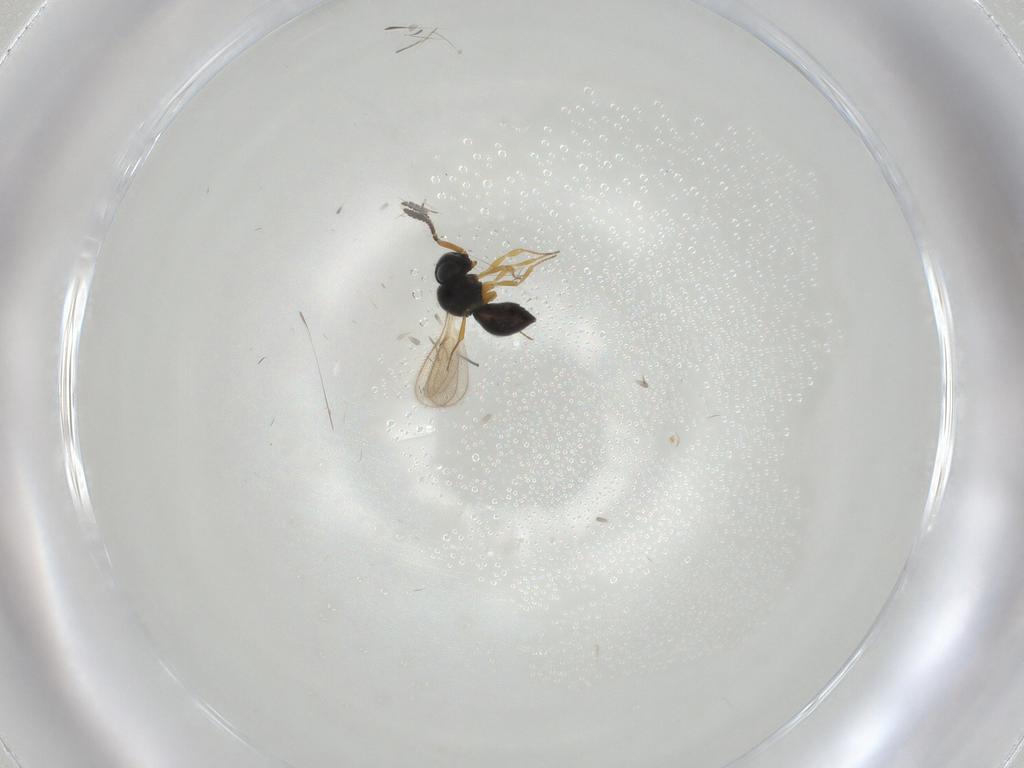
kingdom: Animalia
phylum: Arthropoda
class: Insecta
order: Hymenoptera
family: Scelionidae
